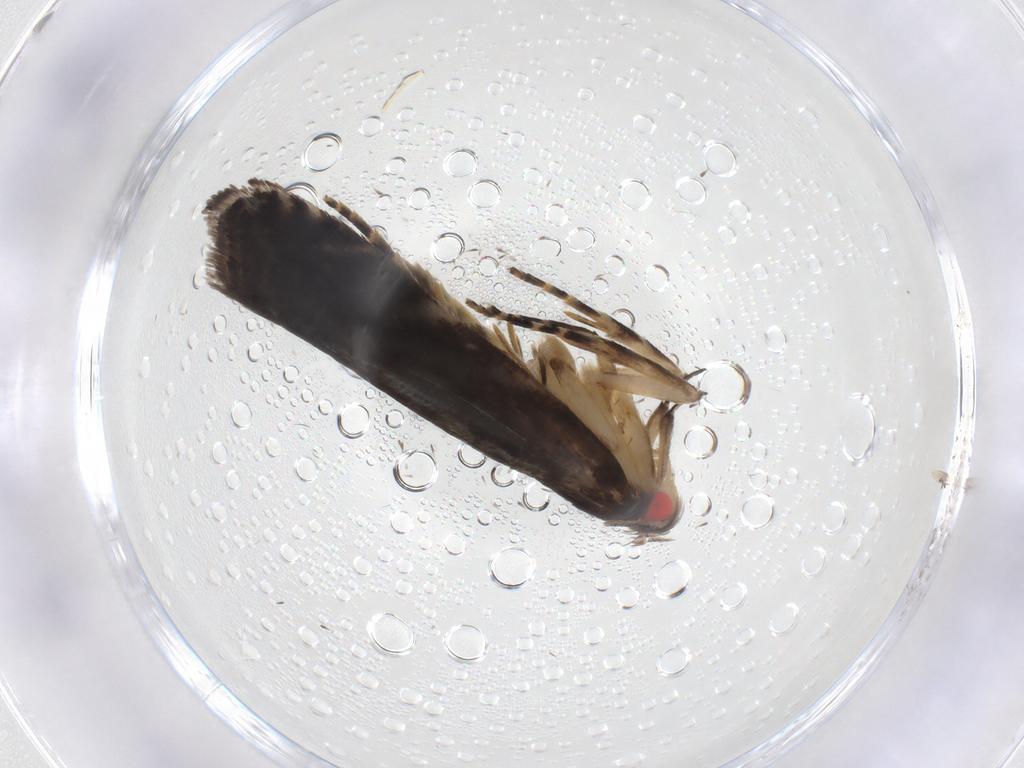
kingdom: Animalia
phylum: Arthropoda
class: Insecta
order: Lepidoptera
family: Gelechiidae
